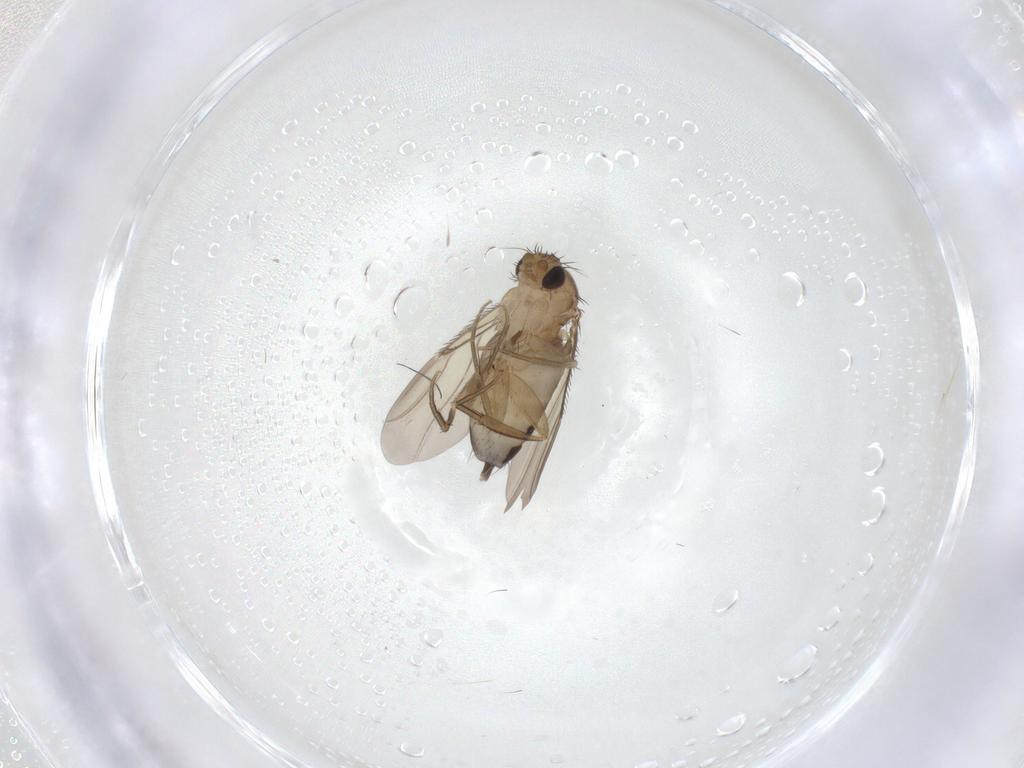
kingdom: Animalia
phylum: Arthropoda
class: Insecta
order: Diptera
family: Phoridae
